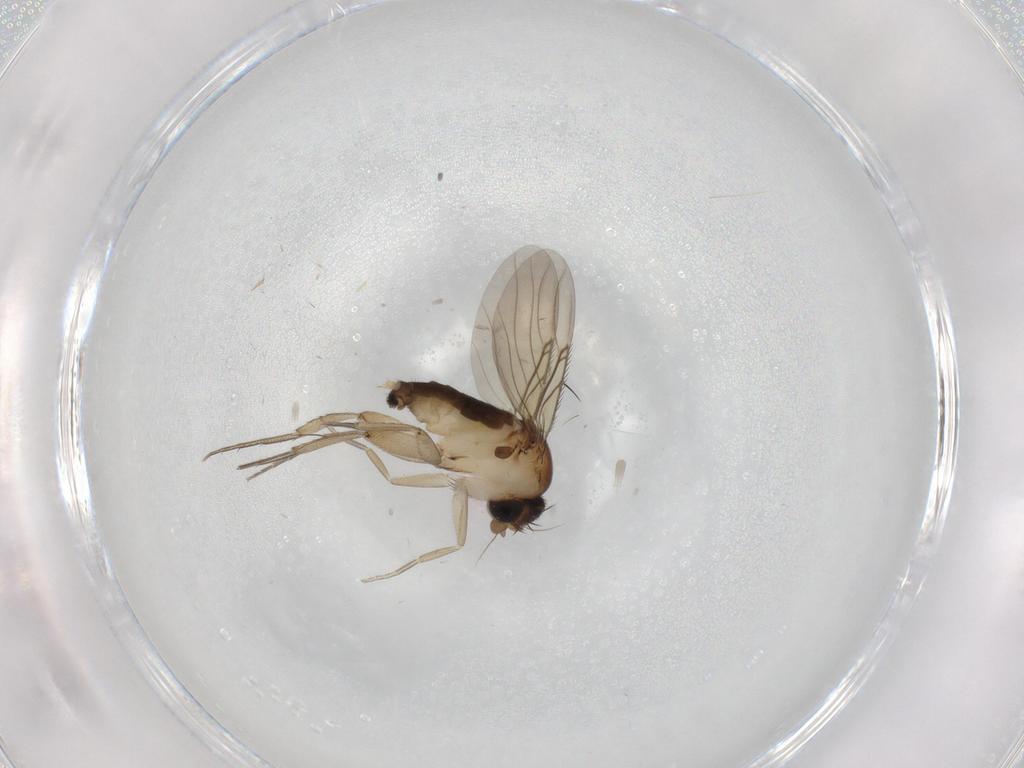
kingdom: Animalia
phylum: Arthropoda
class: Insecta
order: Diptera
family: Phoridae
